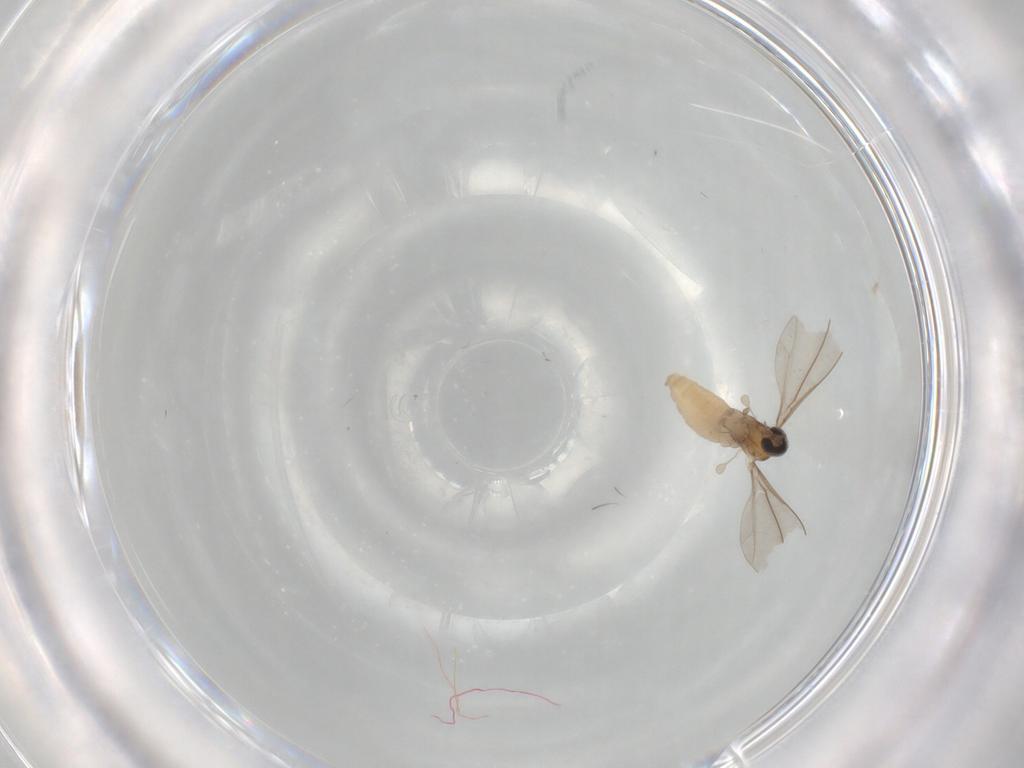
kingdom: Animalia
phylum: Arthropoda
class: Insecta
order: Diptera
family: Cecidomyiidae
